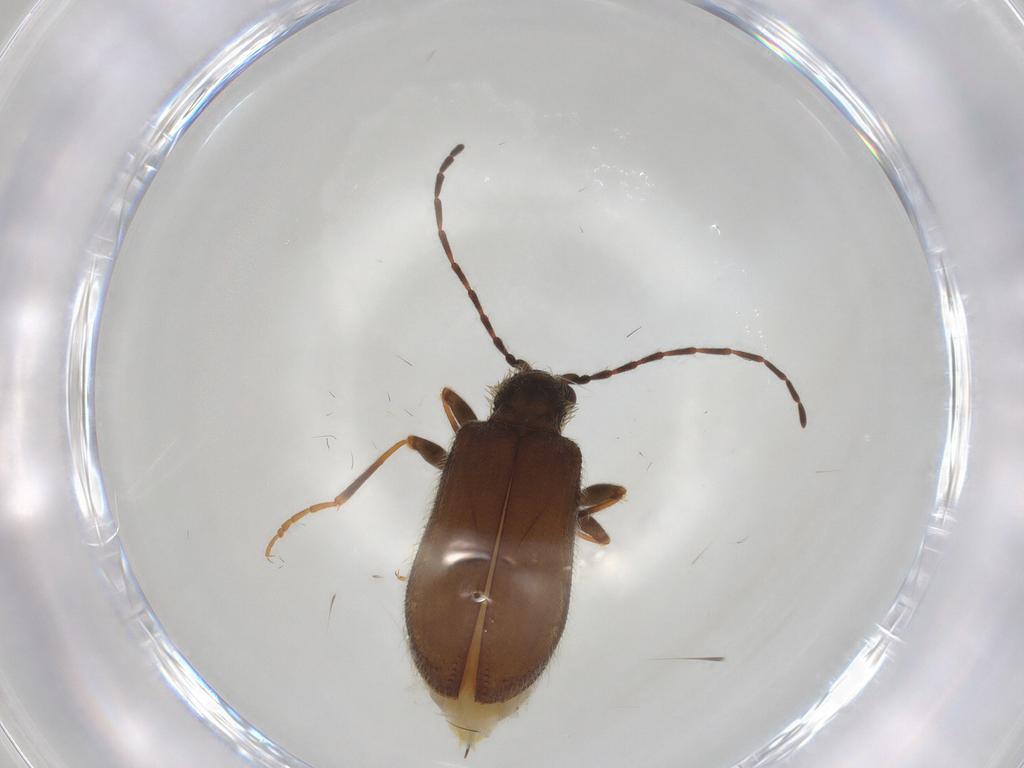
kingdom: Animalia
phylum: Arthropoda
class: Insecta
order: Coleoptera
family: Ptinidae
